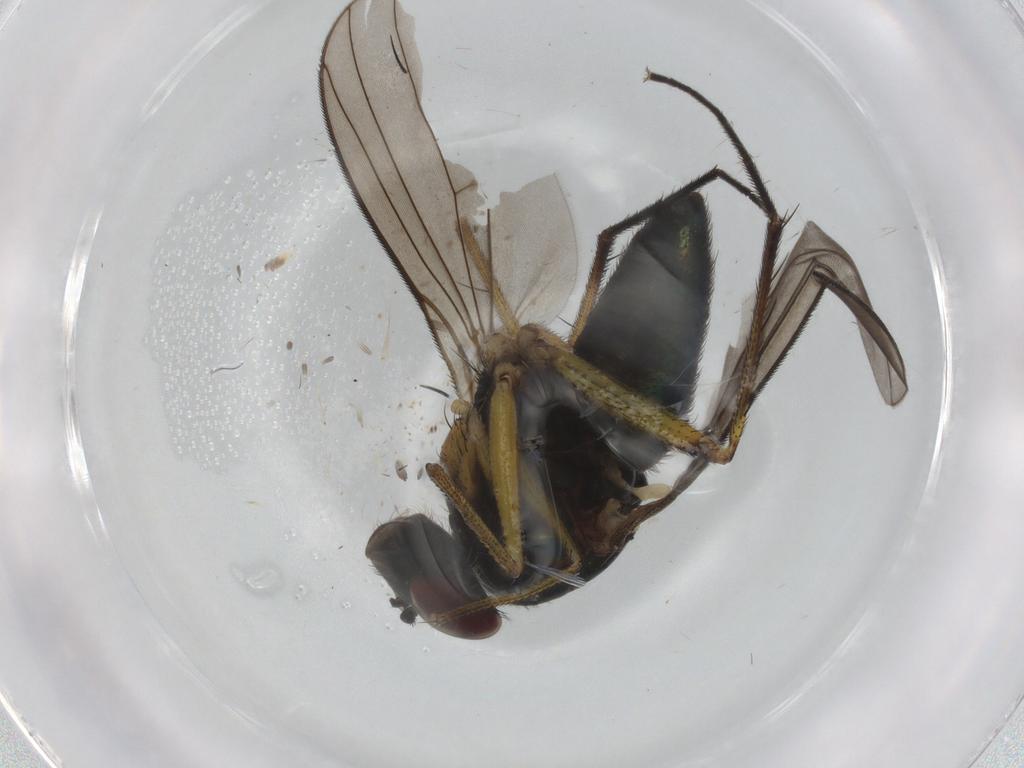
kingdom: Animalia
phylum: Arthropoda
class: Insecta
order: Diptera
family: Dolichopodidae
